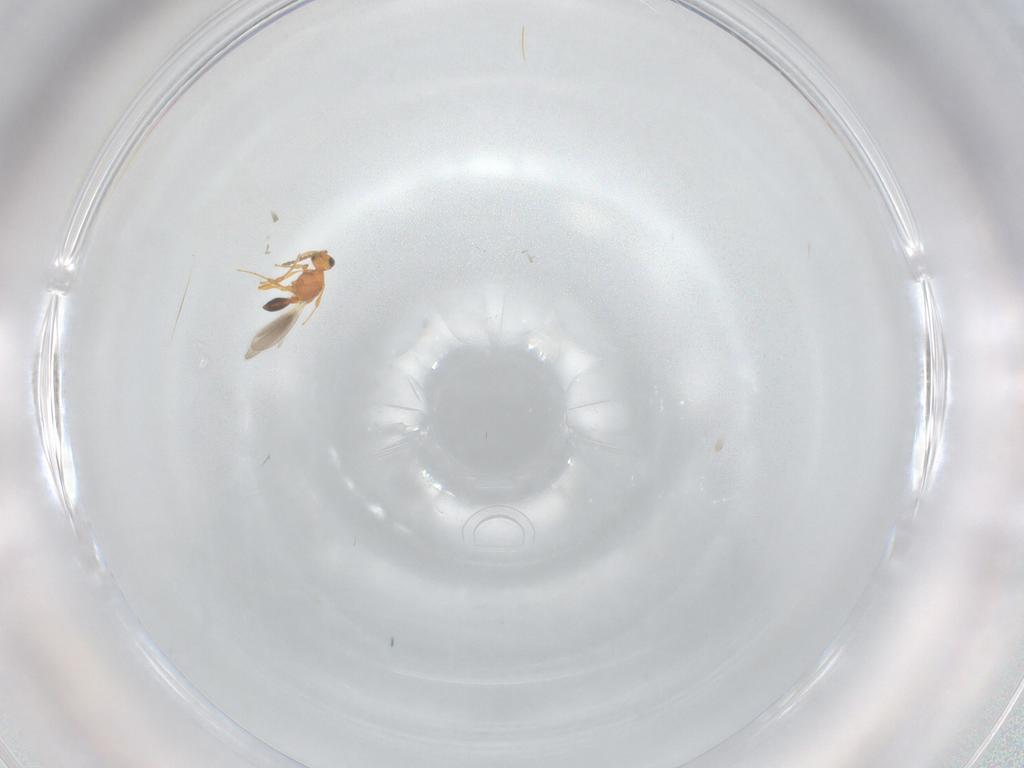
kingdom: Animalia
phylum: Arthropoda
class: Insecta
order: Hymenoptera
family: Platygastridae
